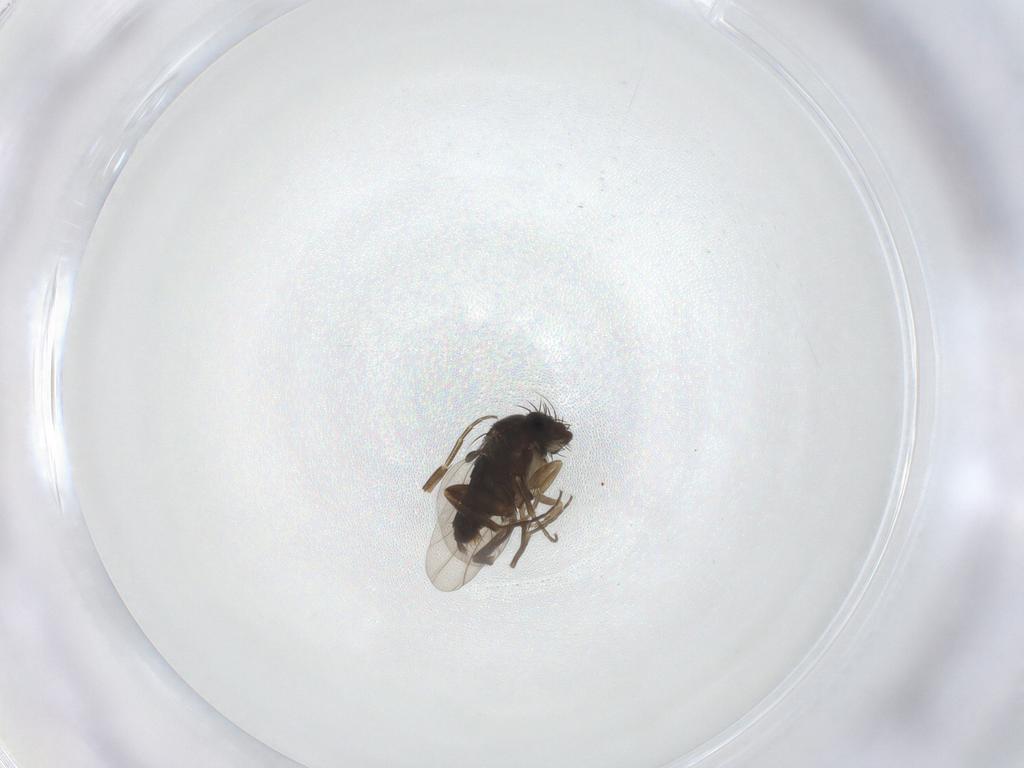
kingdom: Animalia
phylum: Arthropoda
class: Insecta
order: Diptera
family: Phoridae
